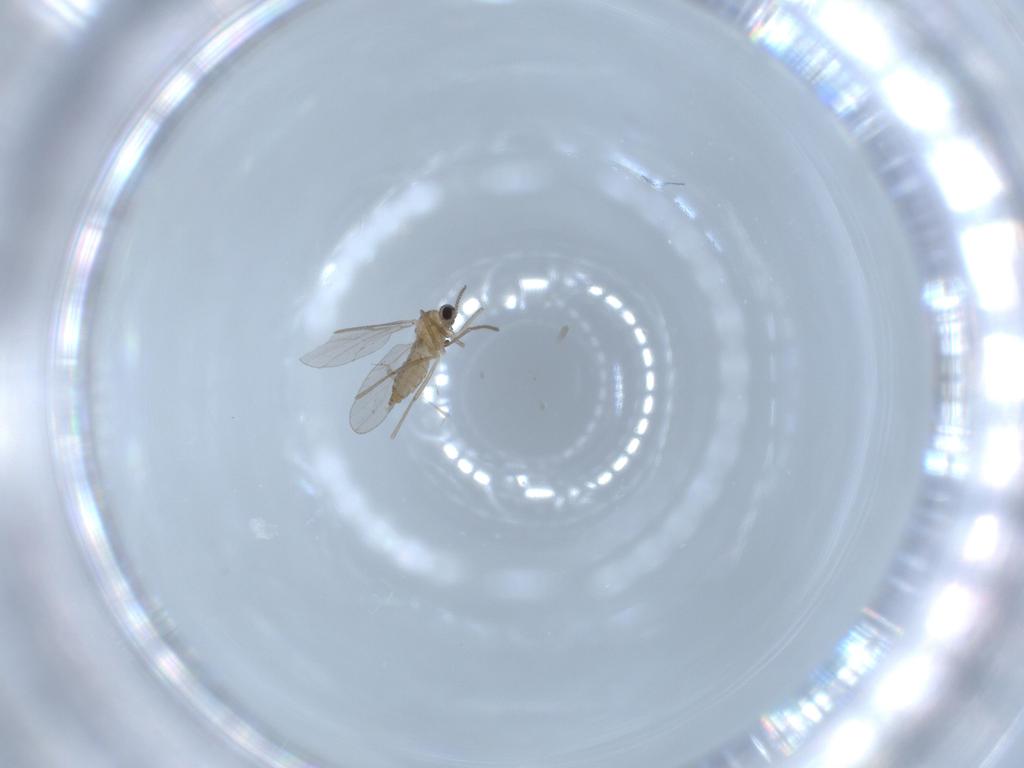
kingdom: Animalia
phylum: Arthropoda
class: Insecta
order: Diptera
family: Cecidomyiidae
